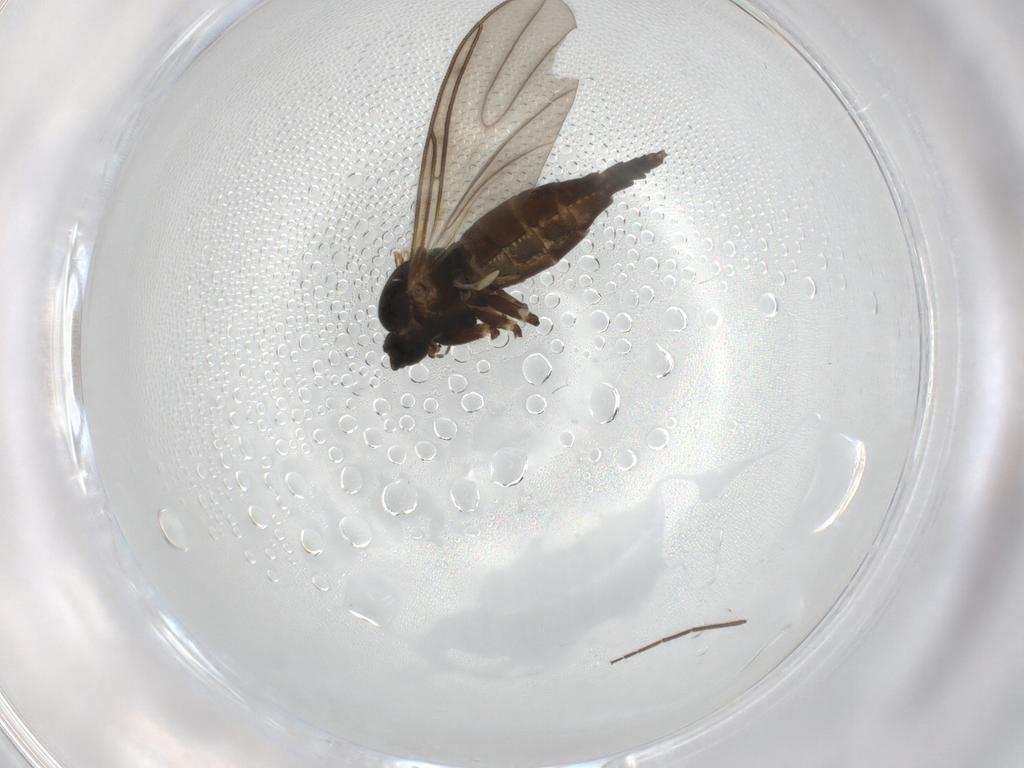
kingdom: Animalia
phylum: Arthropoda
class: Insecta
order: Diptera
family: Sciaridae
